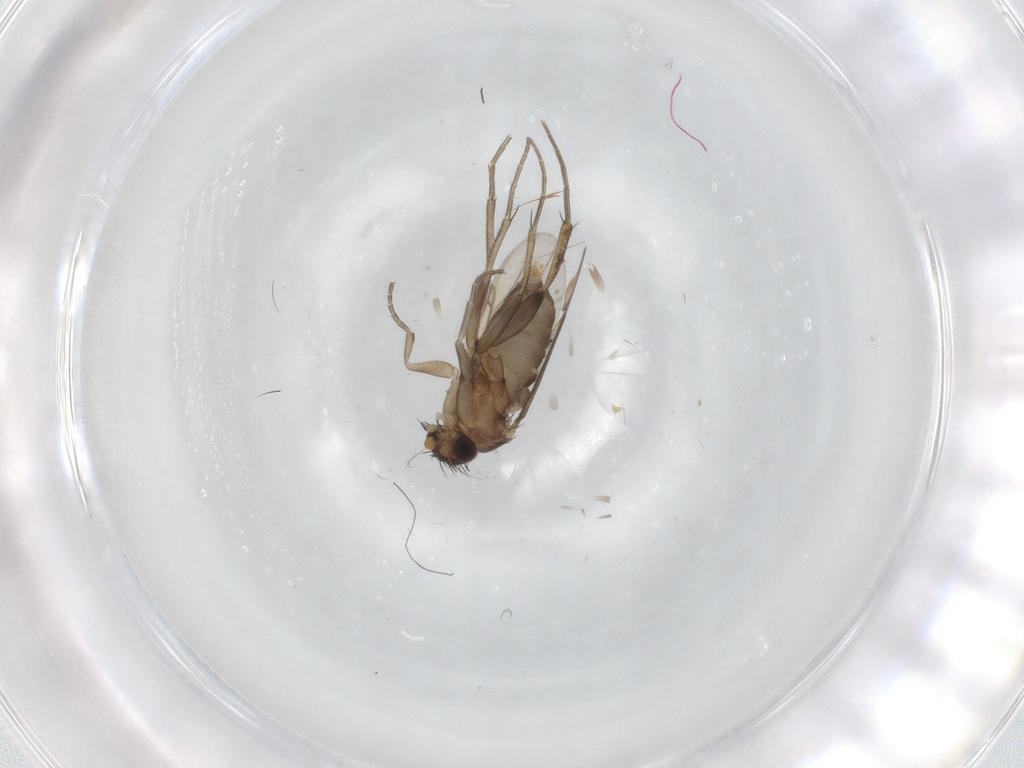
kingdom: Animalia
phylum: Arthropoda
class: Insecta
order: Diptera
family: Phoridae
